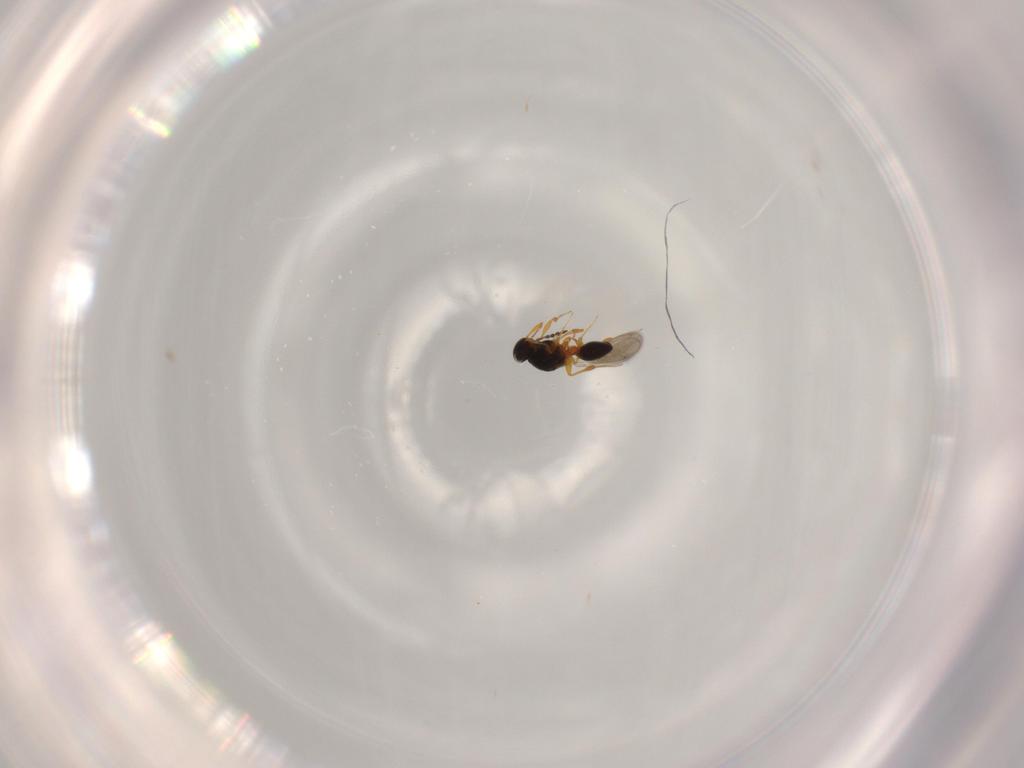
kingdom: Animalia
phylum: Arthropoda
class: Insecta
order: Hymenoptera
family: Platygastridae
